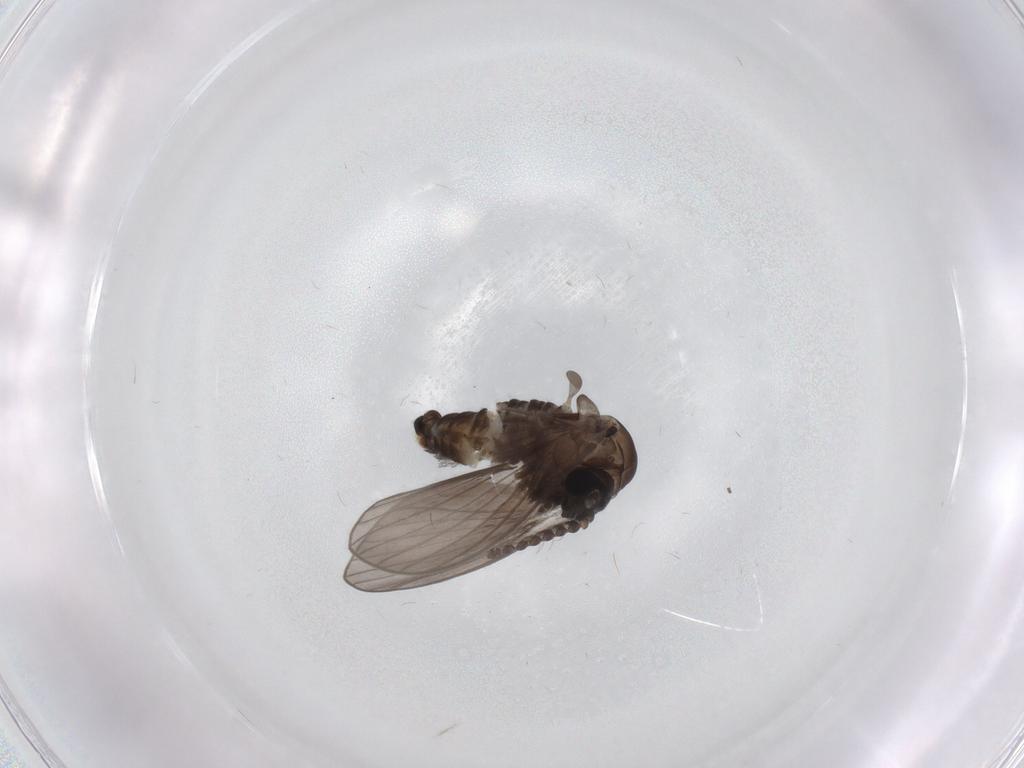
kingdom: Animalia
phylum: Arthropoda
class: Insecta
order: Diptera
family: Psychodidae
